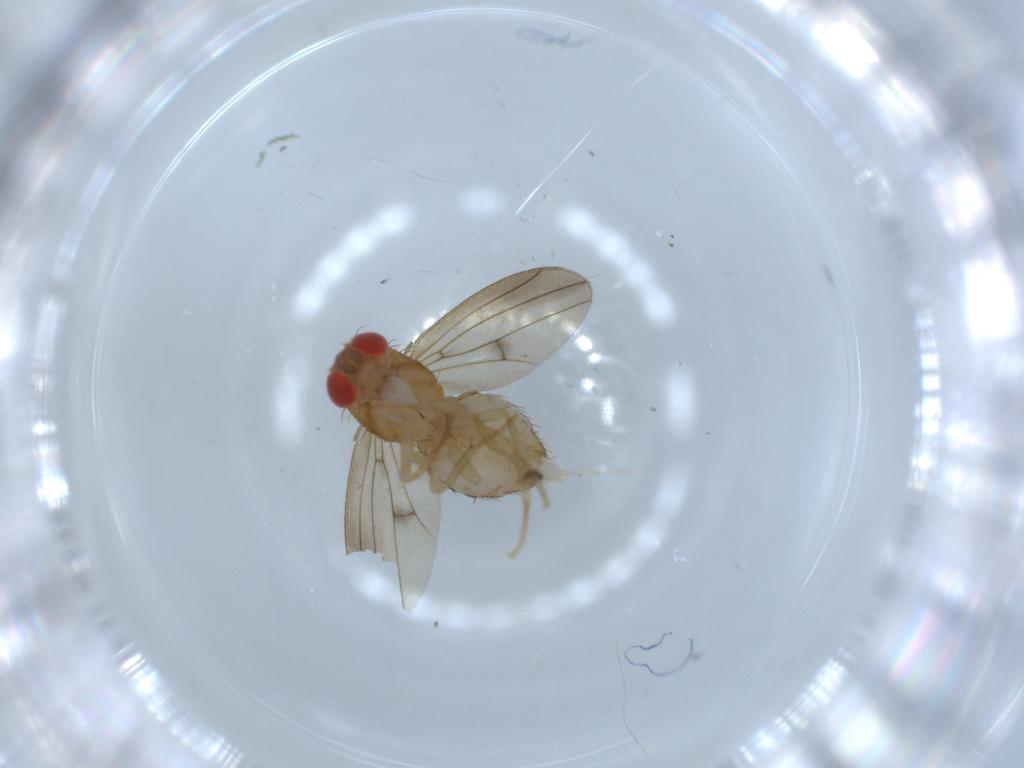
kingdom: Animalia
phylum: Arthropoda
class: Insecta
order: Diptera
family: Drosophilidae
